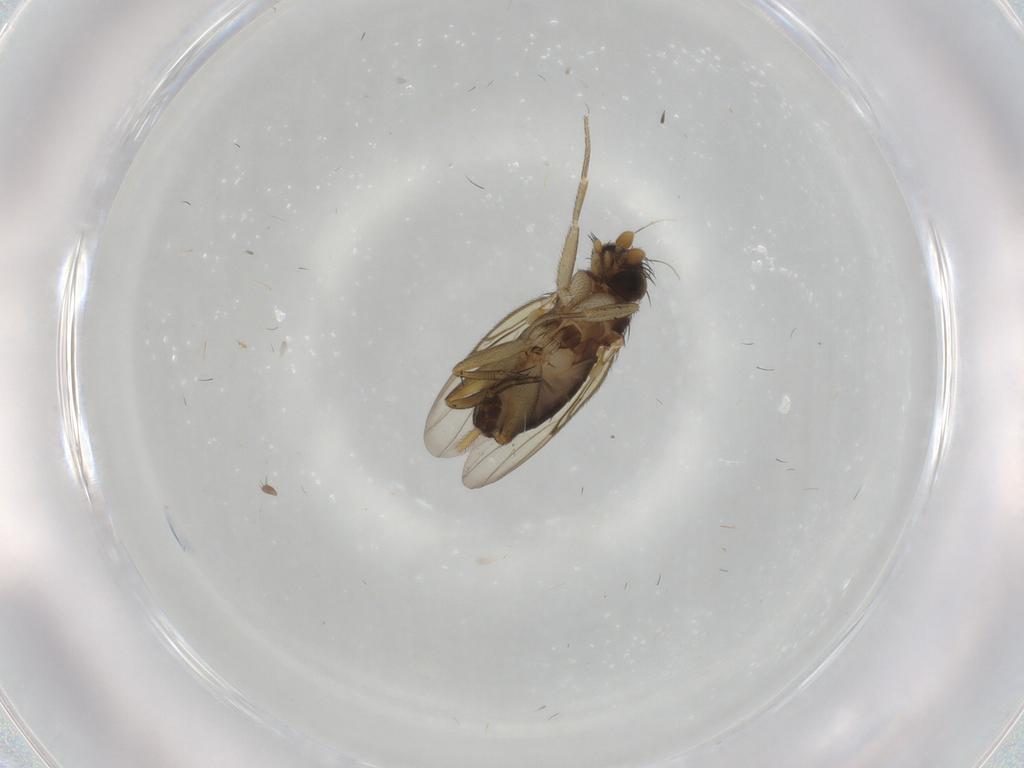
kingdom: Animalia
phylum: Arthropoda
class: Insecta
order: Diptera
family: Phoridae
